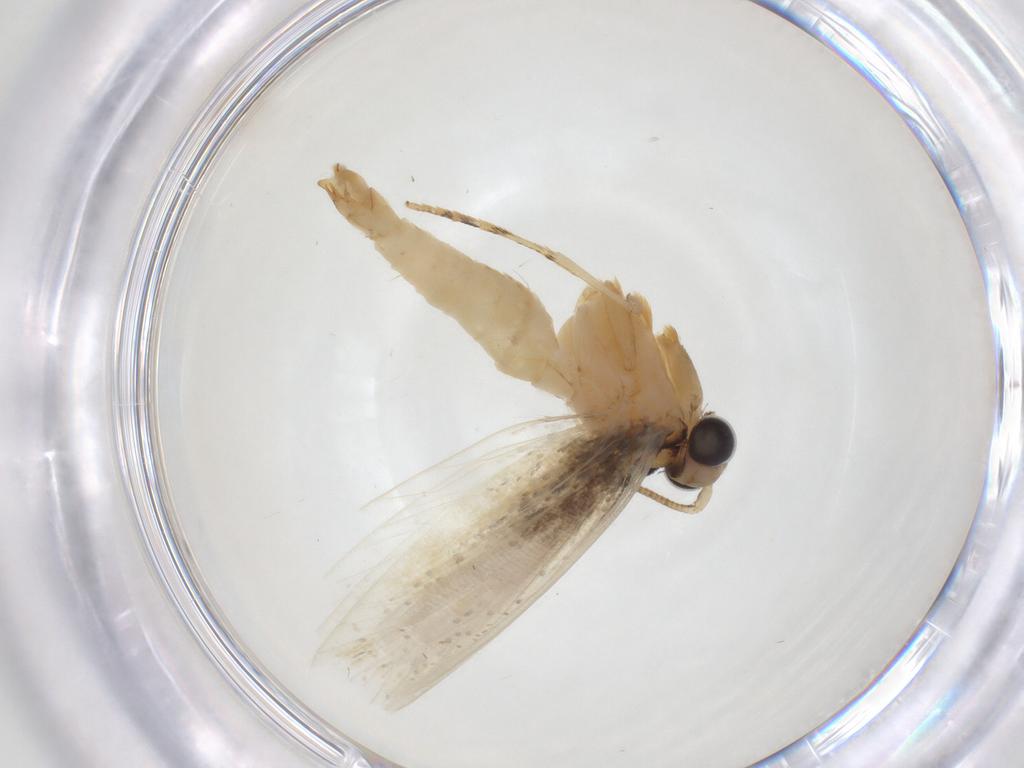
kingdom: Animalia
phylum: Arthropoda
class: Insecta
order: Lepidoptera
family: Tineidae
